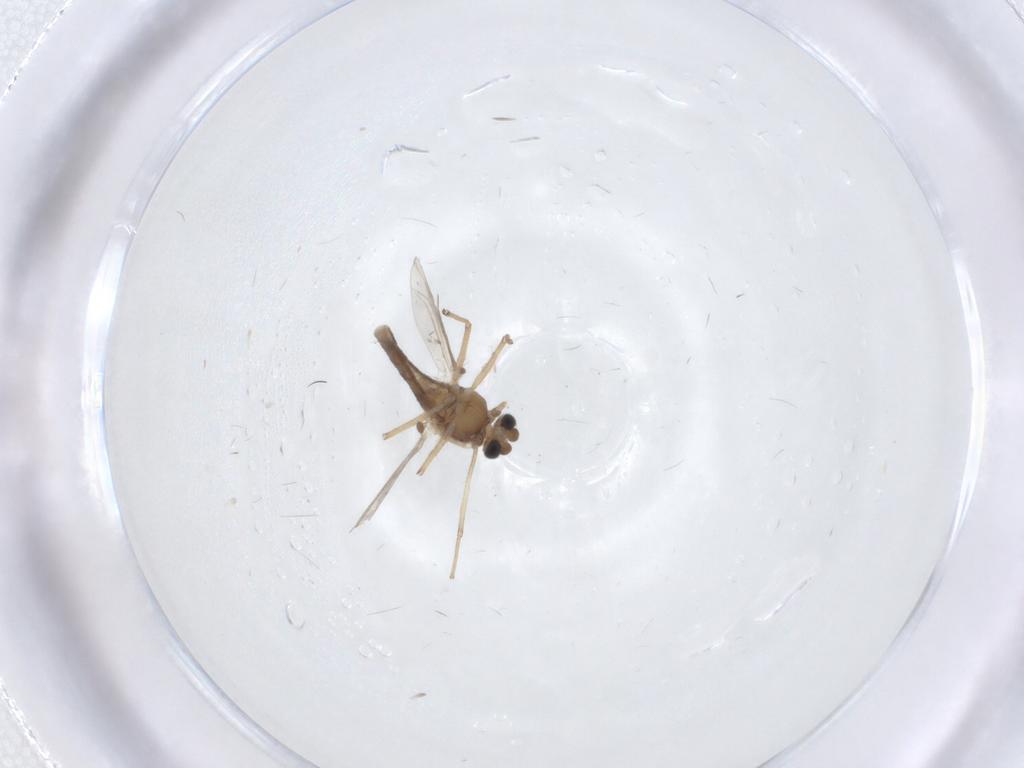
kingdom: Animalia
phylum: Arthropoda
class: Insecta
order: Diptera
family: Chironomidae
